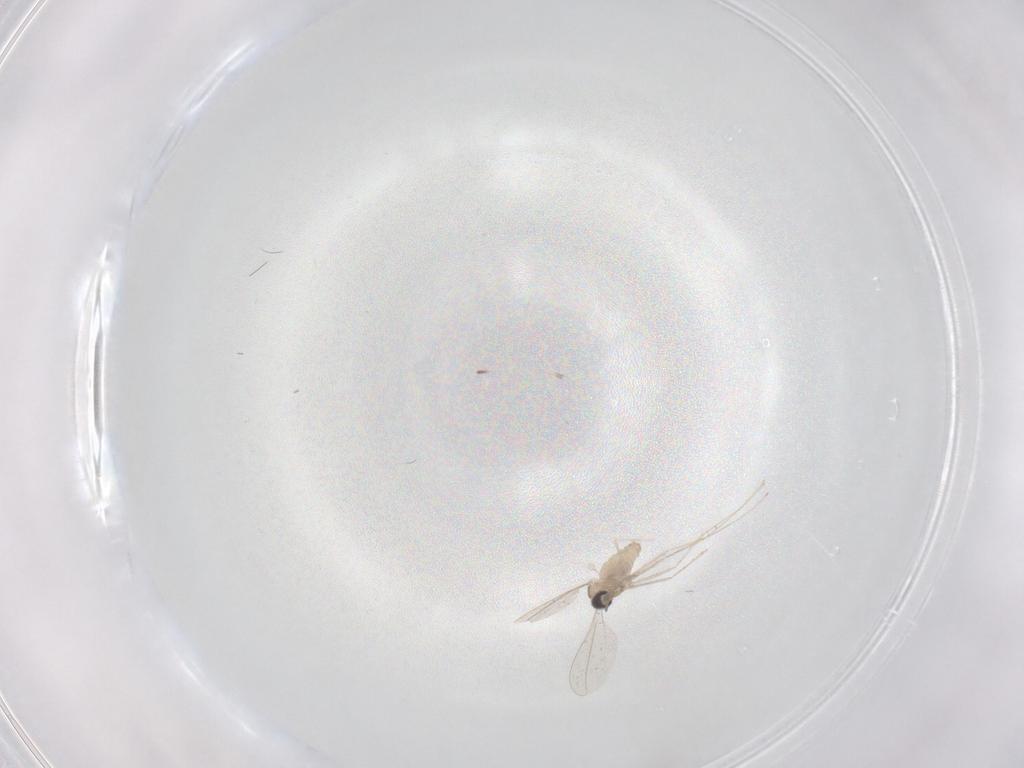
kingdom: Animalia
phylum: Arthropoda
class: Insecta
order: Diptera
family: Cecidomyiidae
